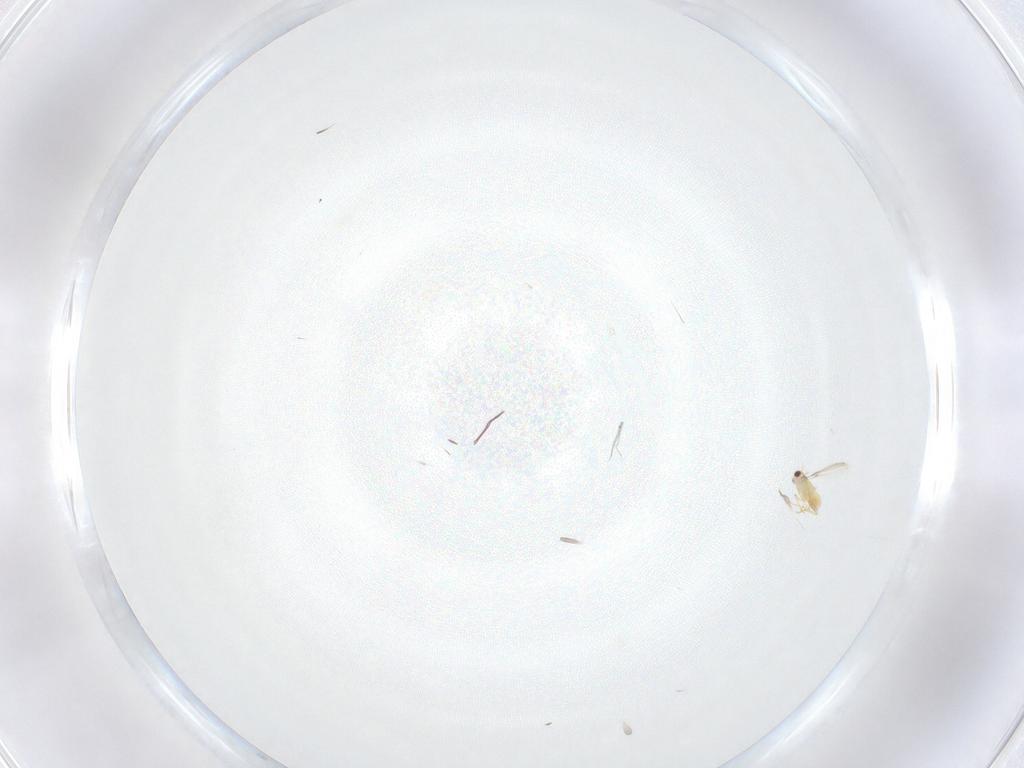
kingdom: Animalia
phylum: Arthropoda
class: Insecta
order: Hymenoptera
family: Mymaridae
